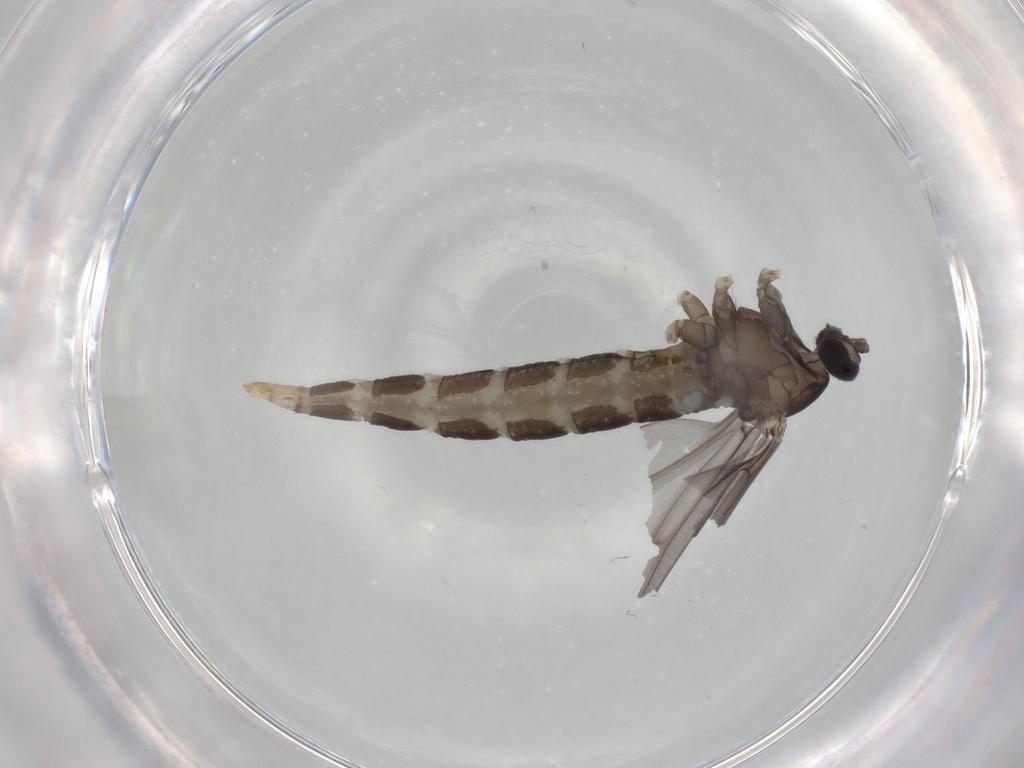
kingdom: Animalia
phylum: Arthropoda
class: Insecta
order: Diptera
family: Cecidomyiidae
